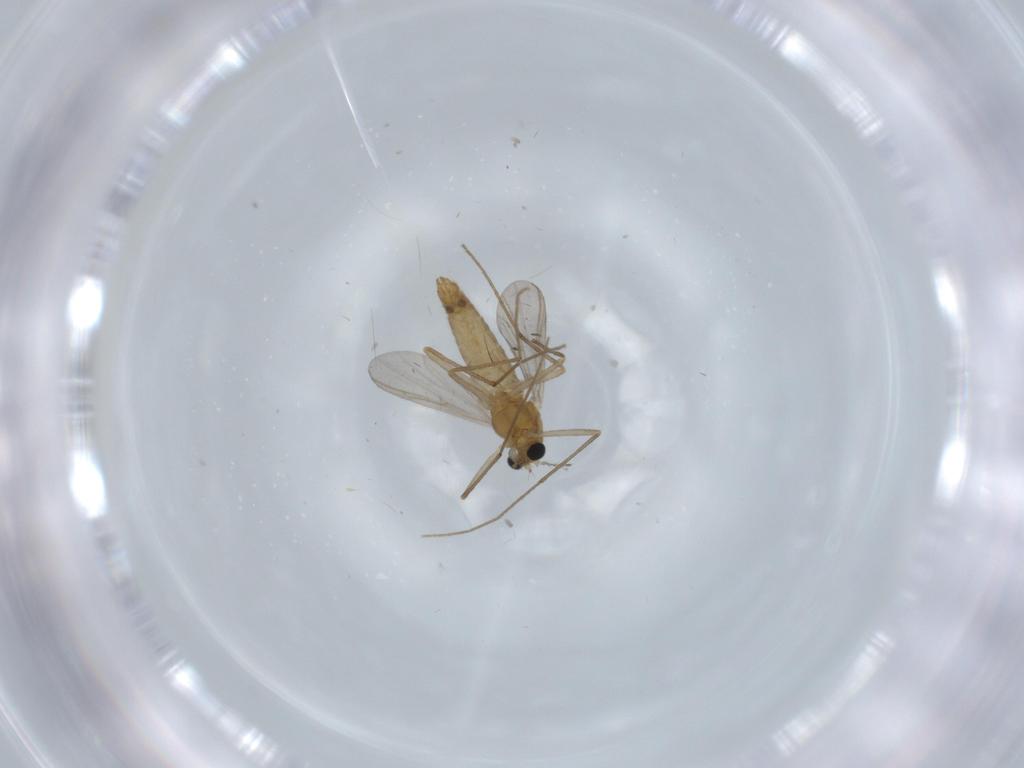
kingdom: Animalia
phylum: Arthropoda
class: Insecta
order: Diptera
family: Chironomidae
